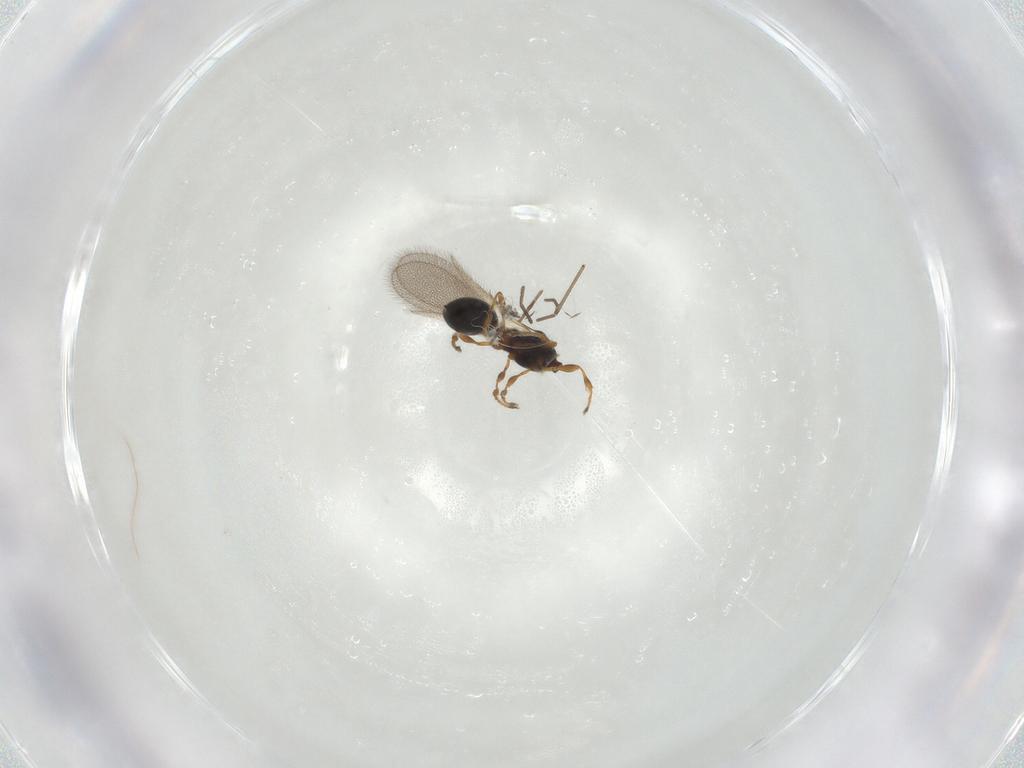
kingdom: Animalia
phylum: Arthropoda
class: Insecta
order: Hymenoptera
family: Diapriidae
